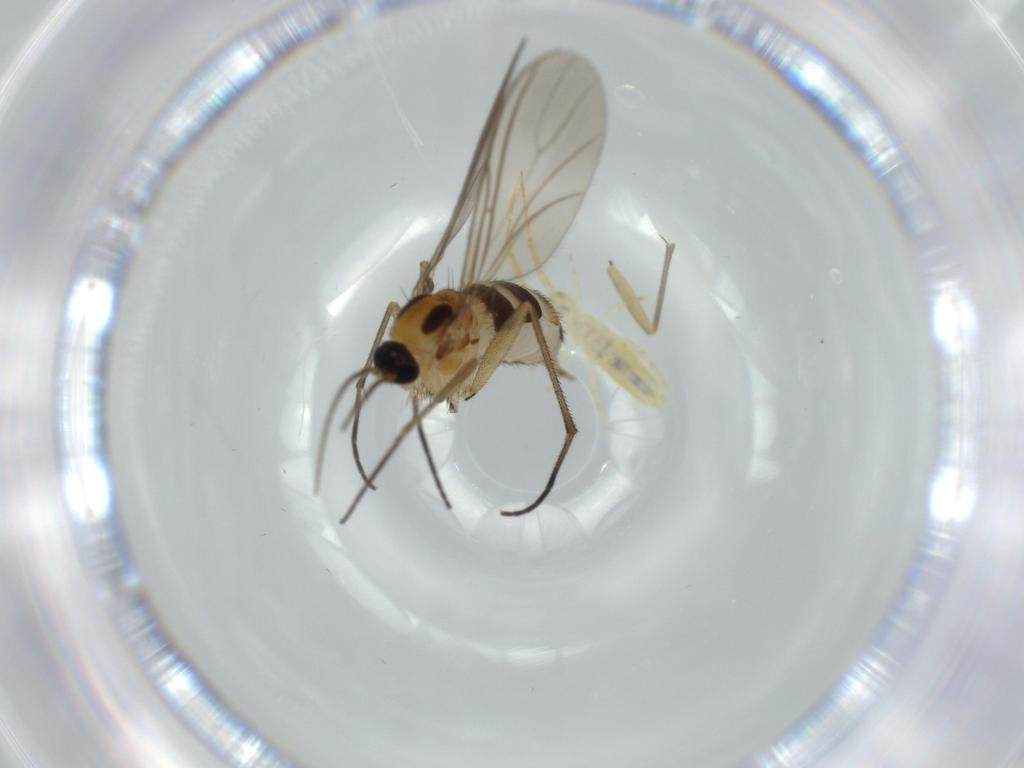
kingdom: Animalia
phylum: Arthropoda
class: Collembola
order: Entomobryomorpha
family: Paronellidae
